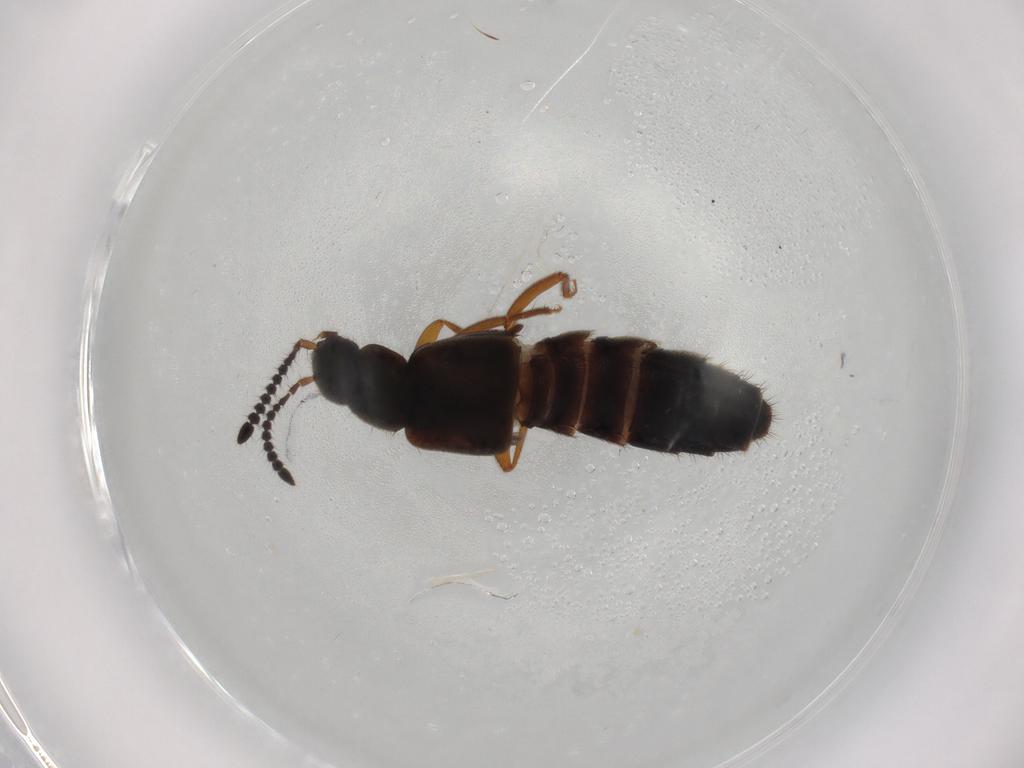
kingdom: Animalia
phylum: Arthropoda
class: Insecta
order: Coleoptera
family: Staphylinidae
